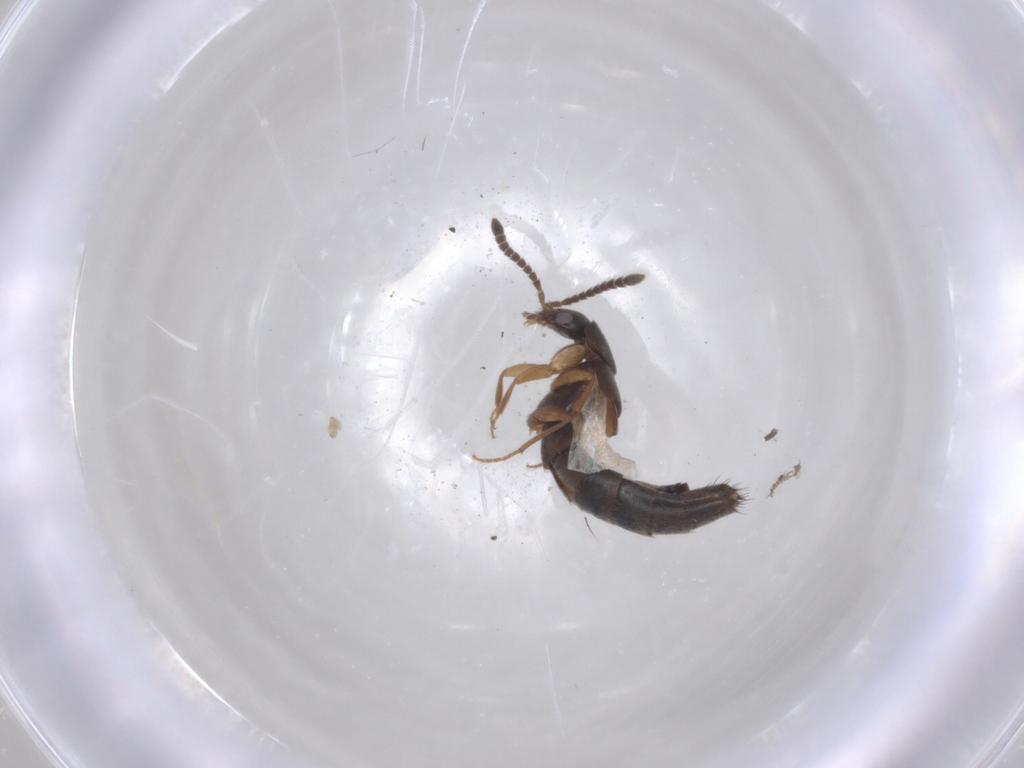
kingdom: Animalia
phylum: Arthropoda
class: Insecta
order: Coleoptera
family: Staphylinidae
